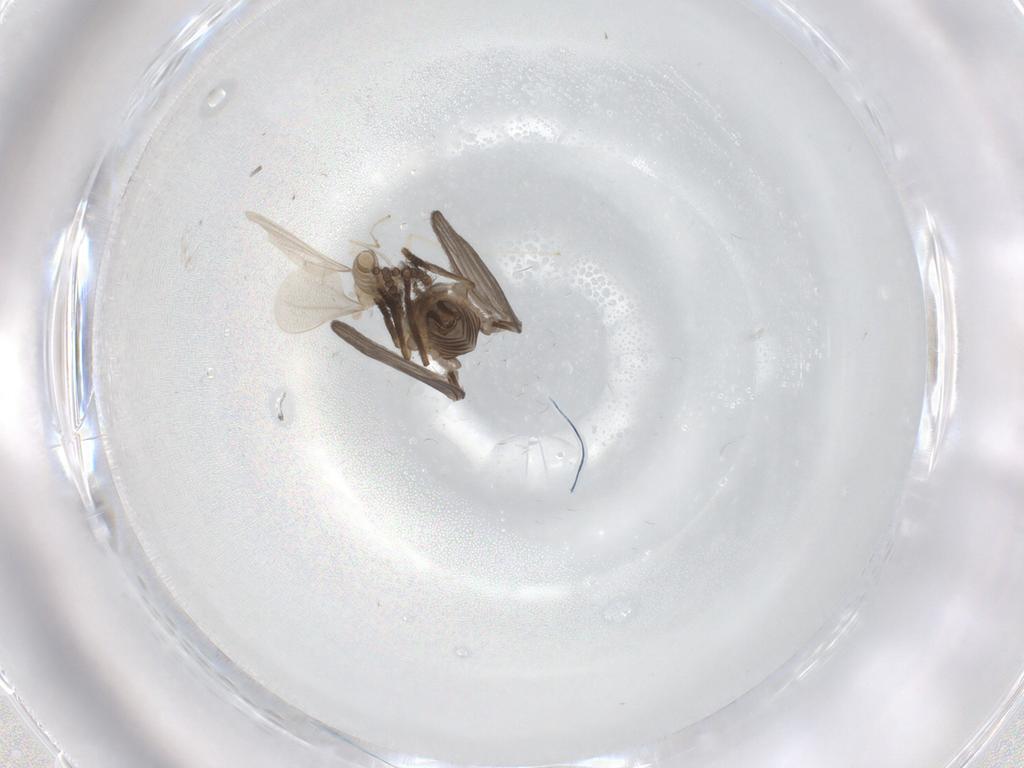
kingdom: Animalia
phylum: Arthropoda
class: Insecta
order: Diptera
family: Psychodidae
